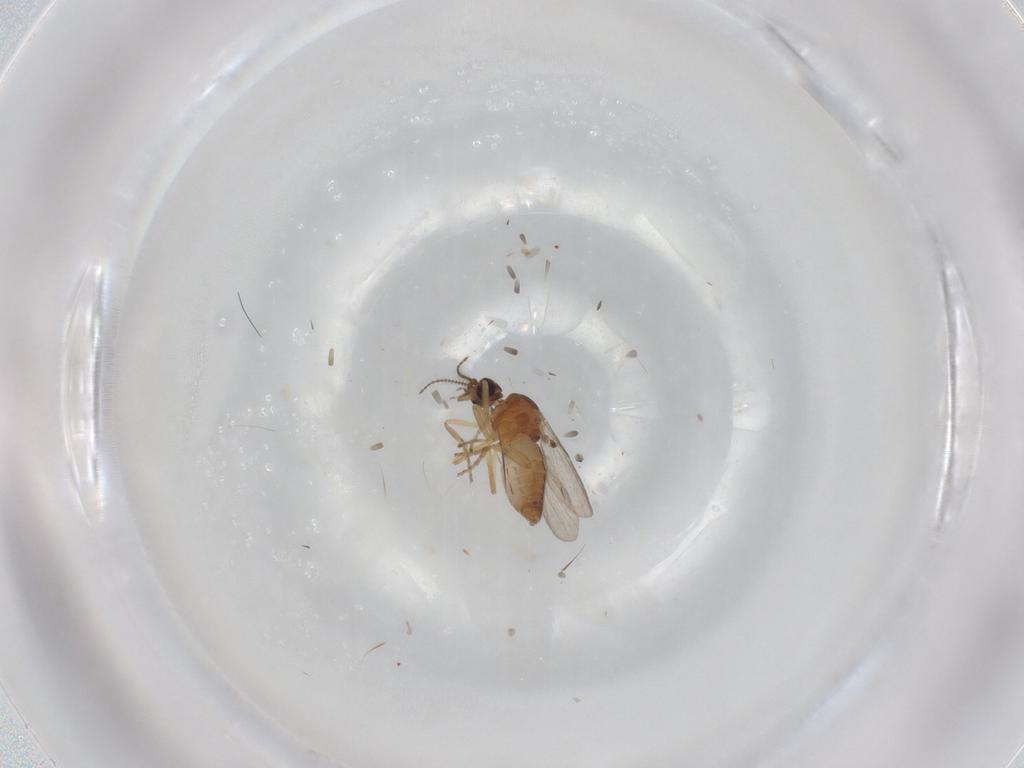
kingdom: Animalia
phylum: Arthropoda
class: Insecta
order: Diptera
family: Ceratopogonidae
